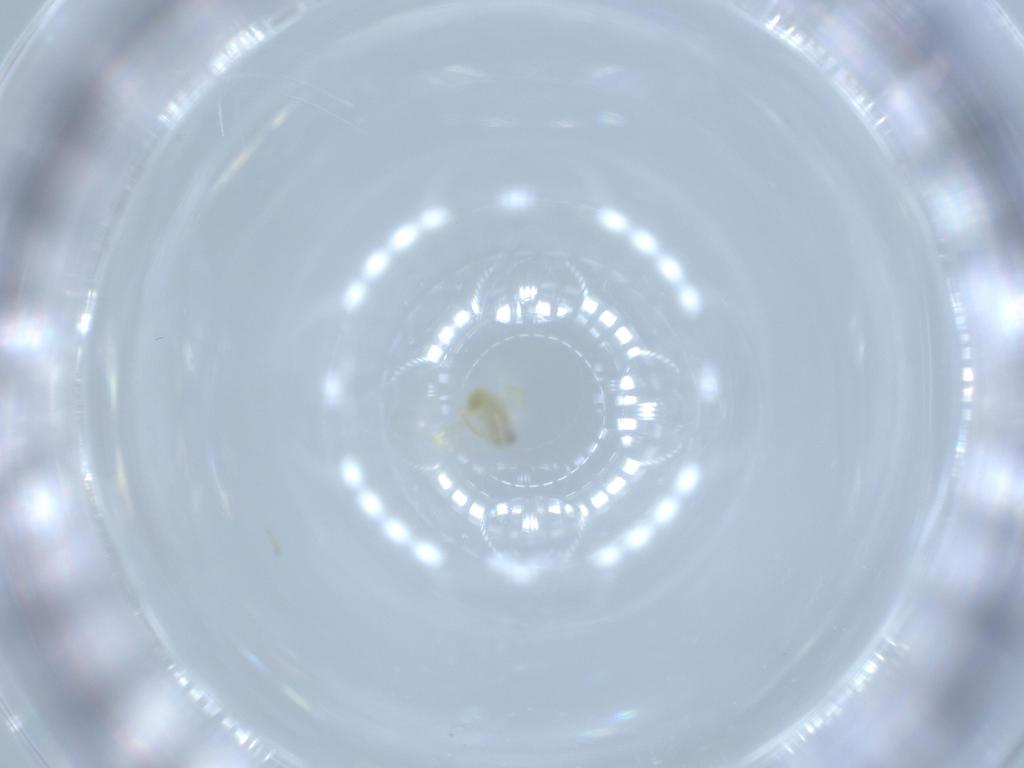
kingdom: Animalia
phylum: Arthropoda
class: Insecta
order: Hemiptera
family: Aleyrodidae
